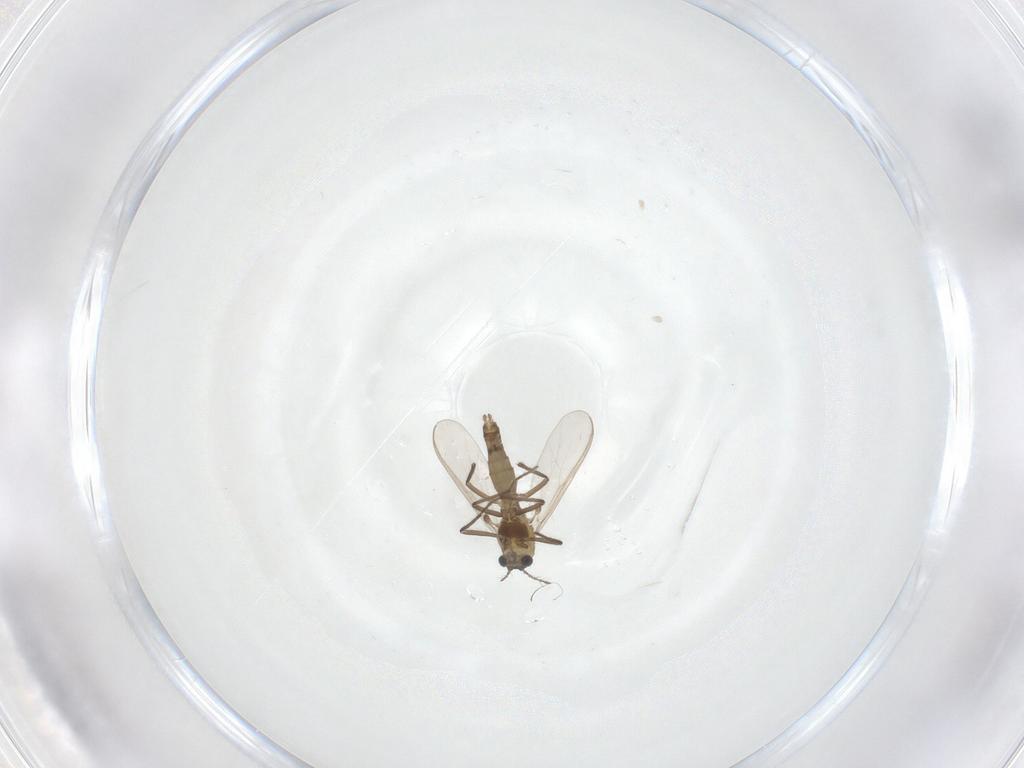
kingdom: Animalia
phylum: Arthropoda
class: Insecta
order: Diptera
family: Chironomidae
